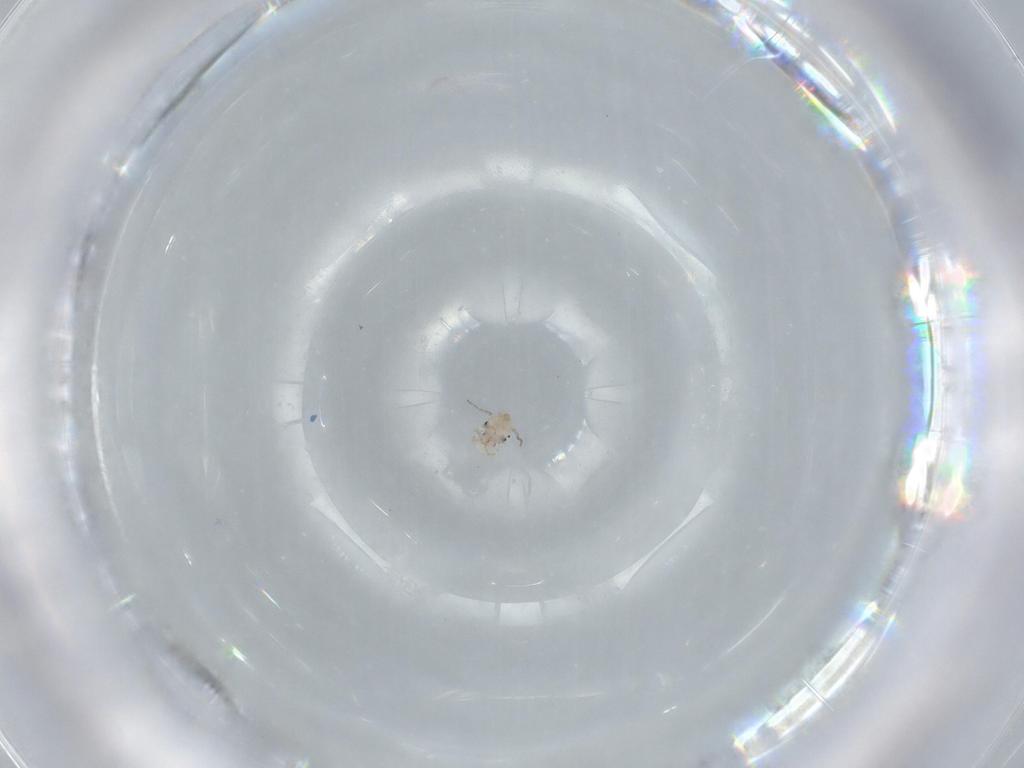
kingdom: Animalia
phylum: Arthropoda
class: Insecta
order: Psocodea
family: Lepidopsocidae
